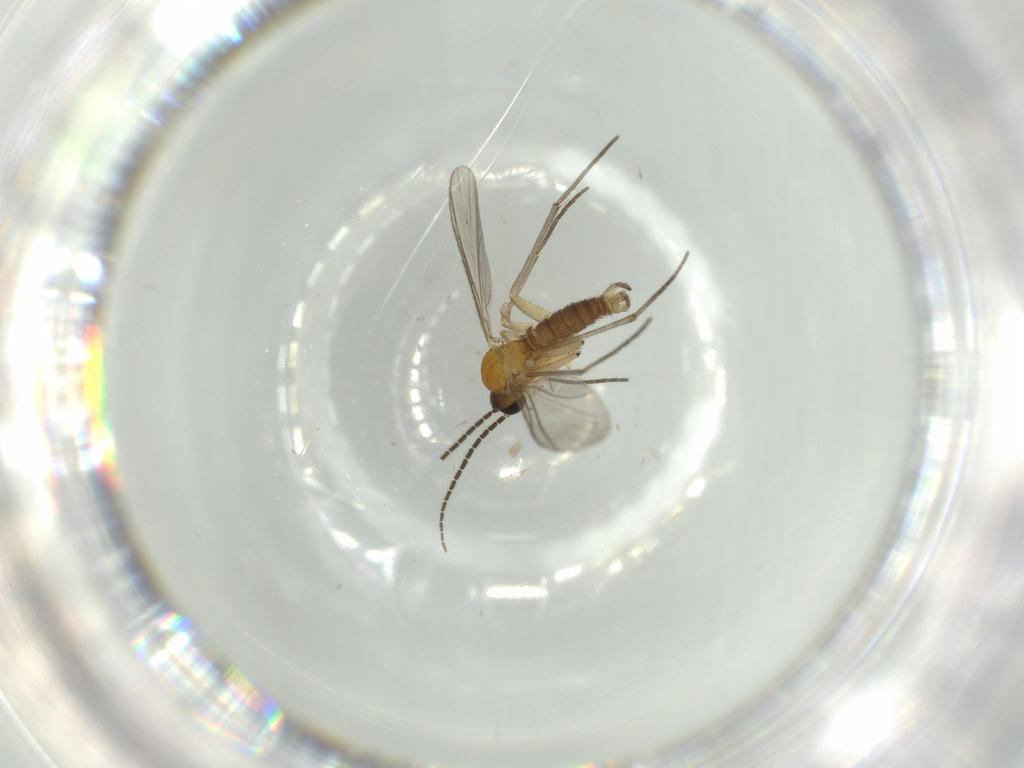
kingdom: Animalia
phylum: Arthropoda
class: Insecta
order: Diptera
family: Sciaridae
